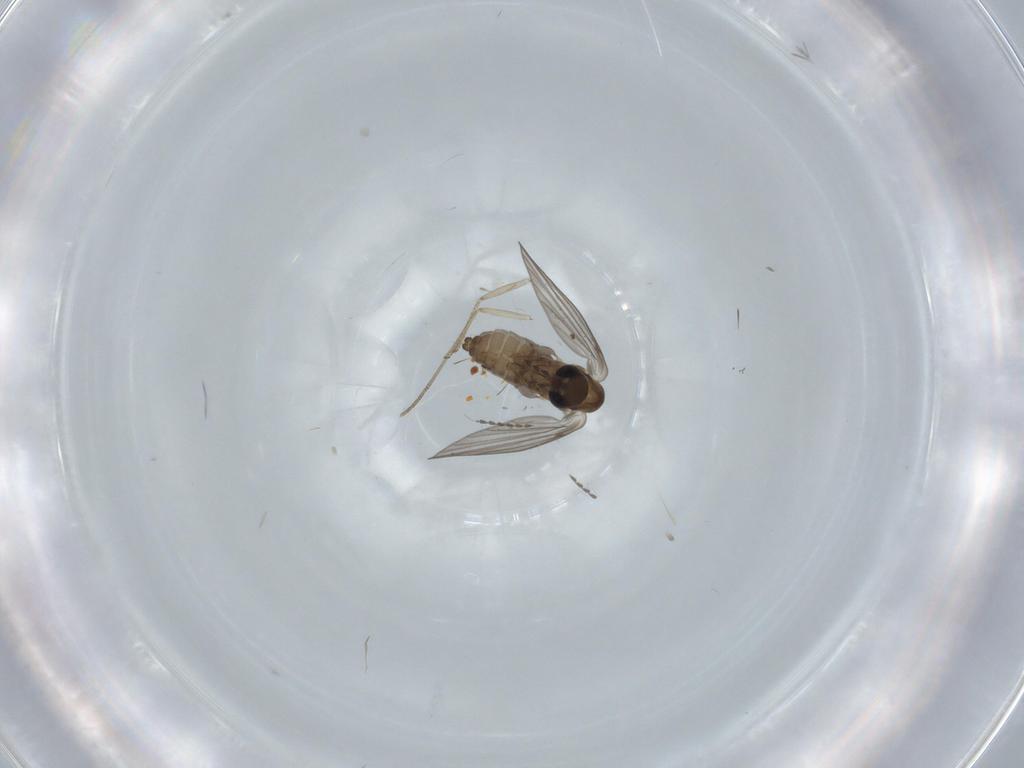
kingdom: Animalia
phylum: Arthropoda
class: Insecta
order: Diptera
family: Psychodidae
